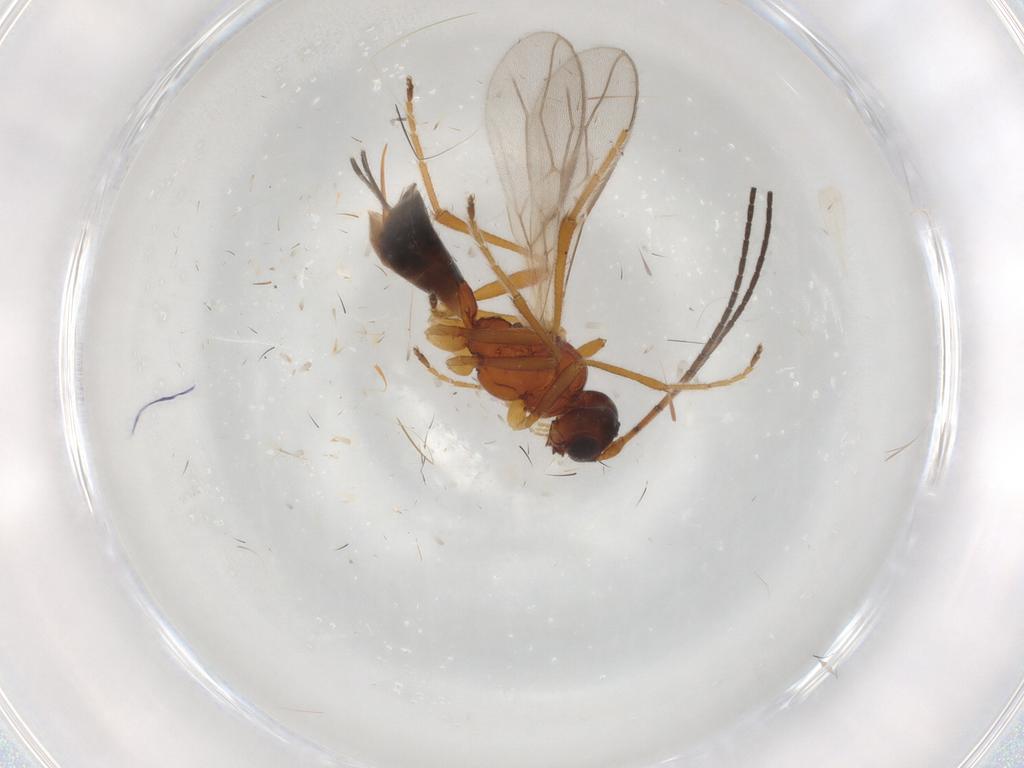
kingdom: Animalia
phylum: Arthropoda
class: Insecta
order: Hymenoptera
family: Braconidae
